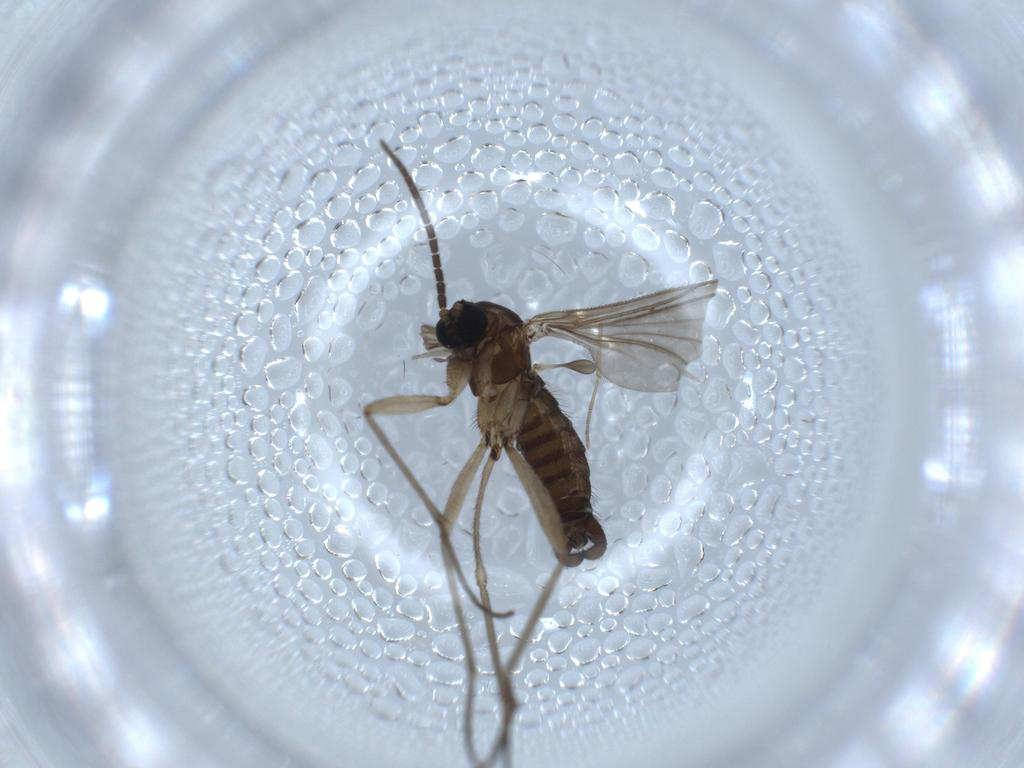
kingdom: Animalia
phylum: Arthropoda
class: Insecta
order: Diptera
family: Sciaridae
